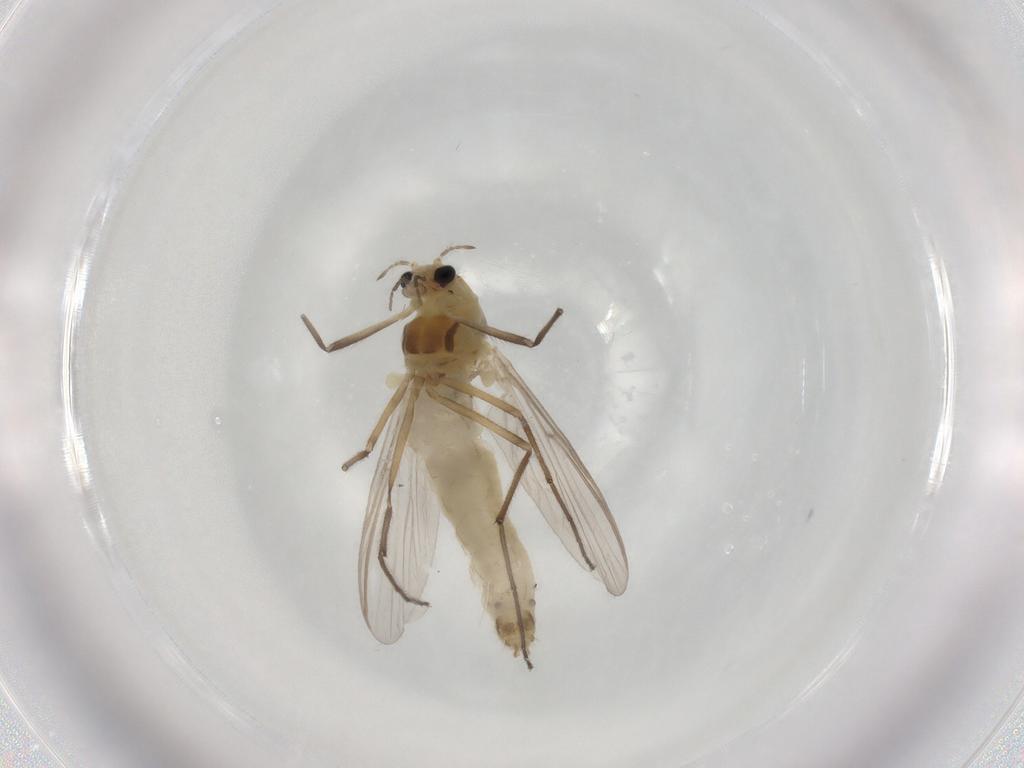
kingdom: Animalia
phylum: Arthropoda
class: Insecta
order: Diptera
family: Muscidae
